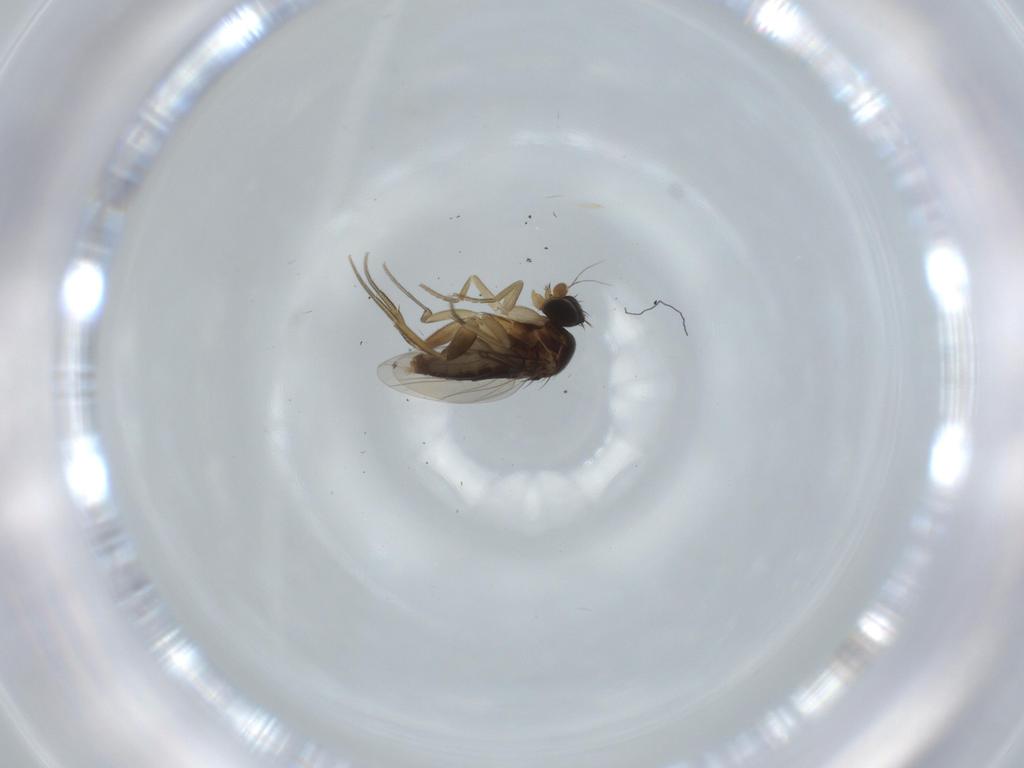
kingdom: Animalia
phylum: Arthropoda
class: Insecta
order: Diptera
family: Phoridae
